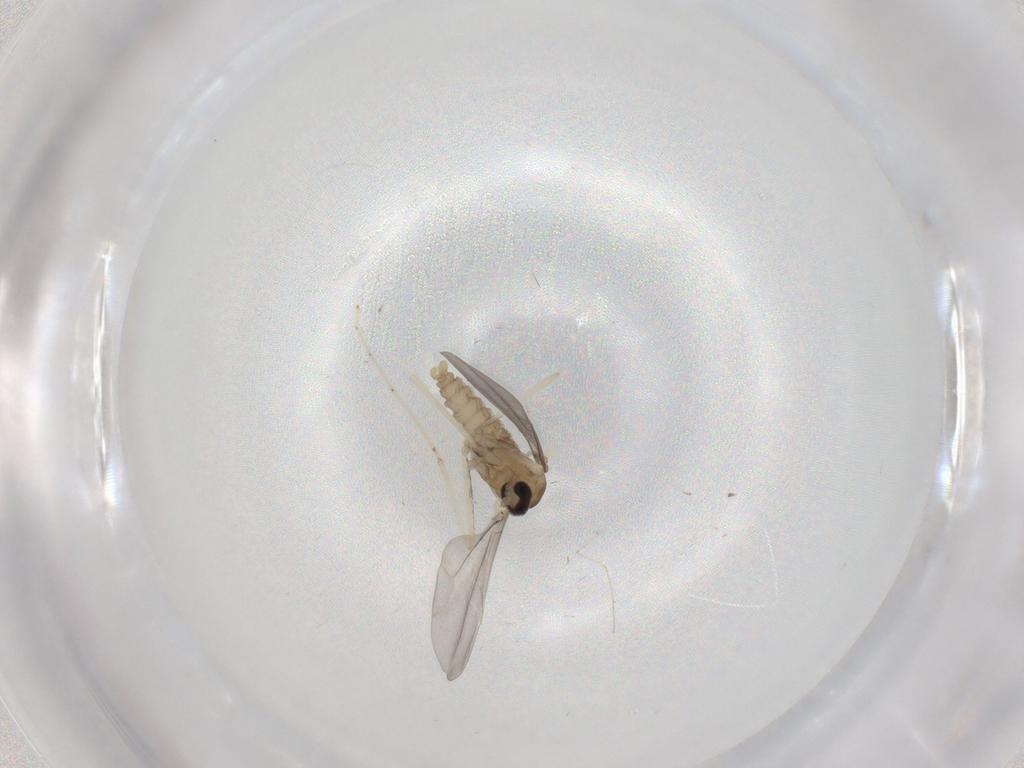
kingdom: Animalia
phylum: Arthropoda
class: Insecta
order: Diptera
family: Cecidomyiidae
